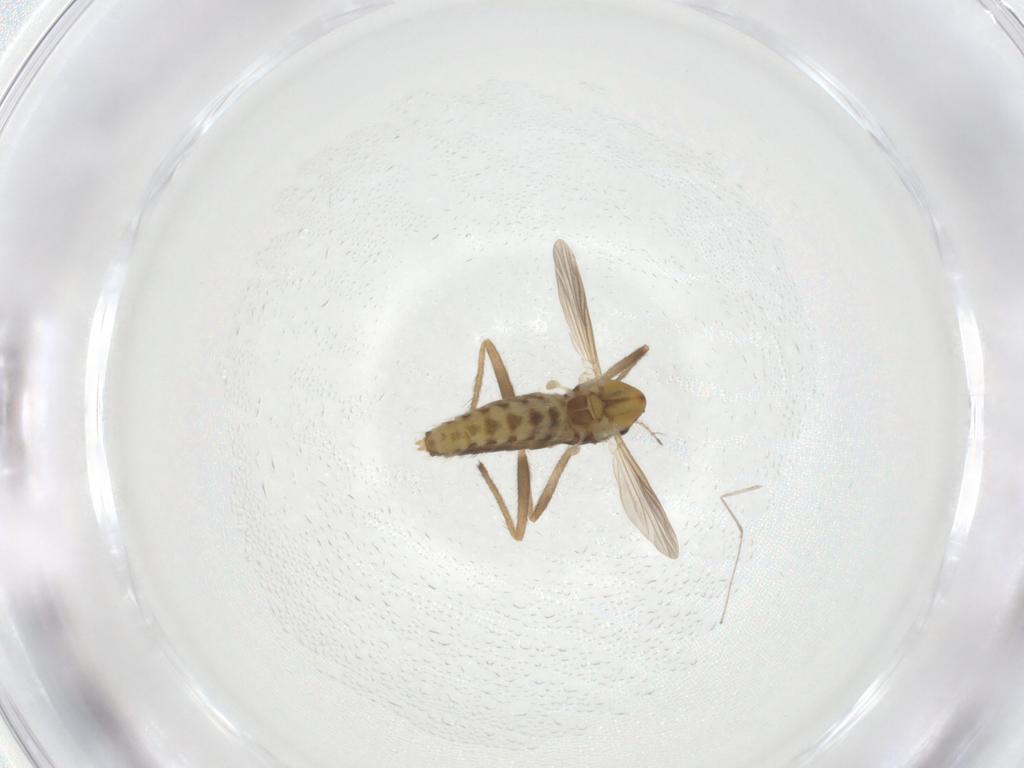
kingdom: Animalia
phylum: Arthropoda
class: Insecta
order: Diptera
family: Chironomidae
